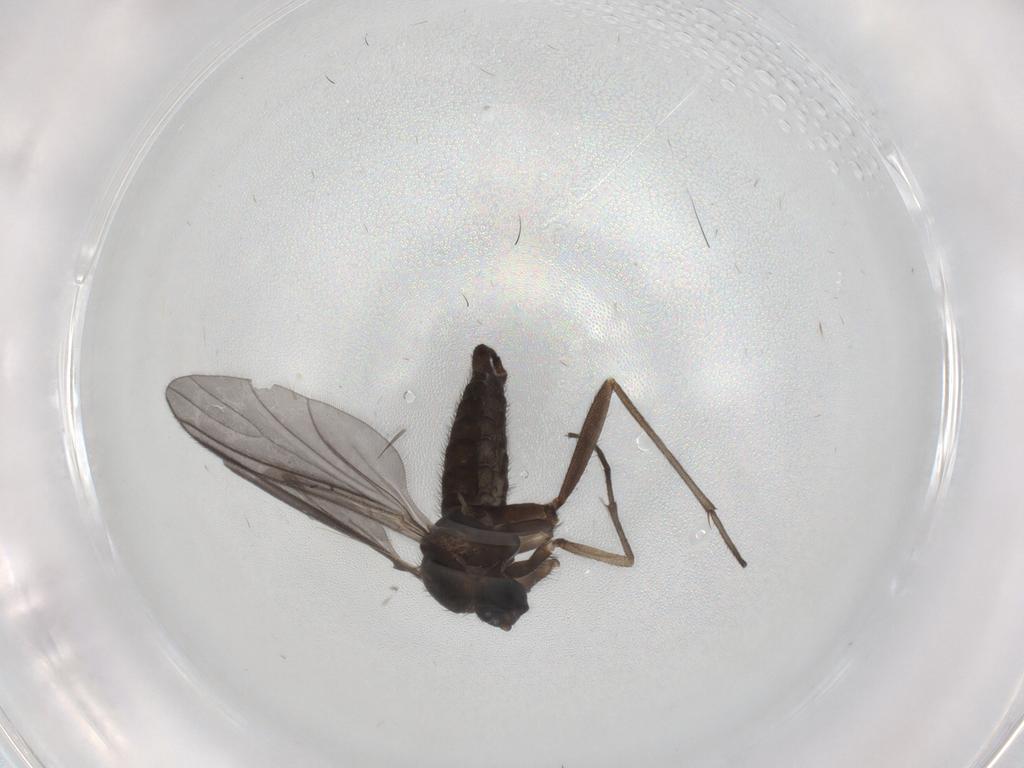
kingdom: Animalia
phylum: Arthropoda
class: Insecta
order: Diptera
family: Sciaridae
